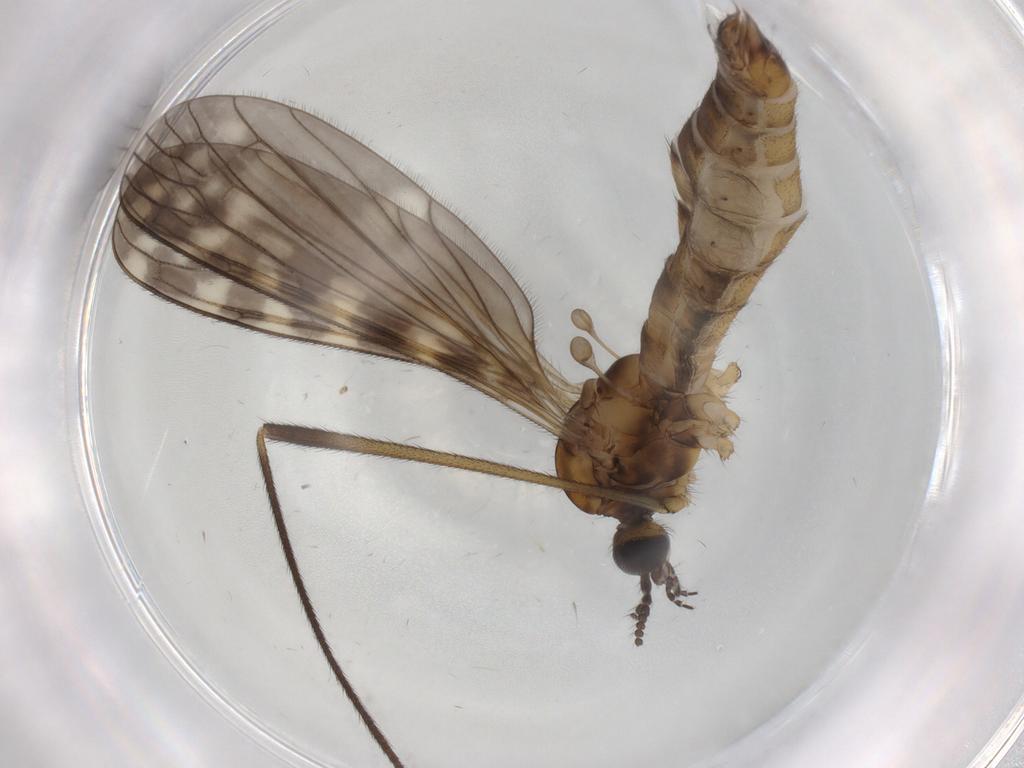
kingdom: Animalia
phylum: Arthropoda
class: Insecta
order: Diptera
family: Limoniidae
